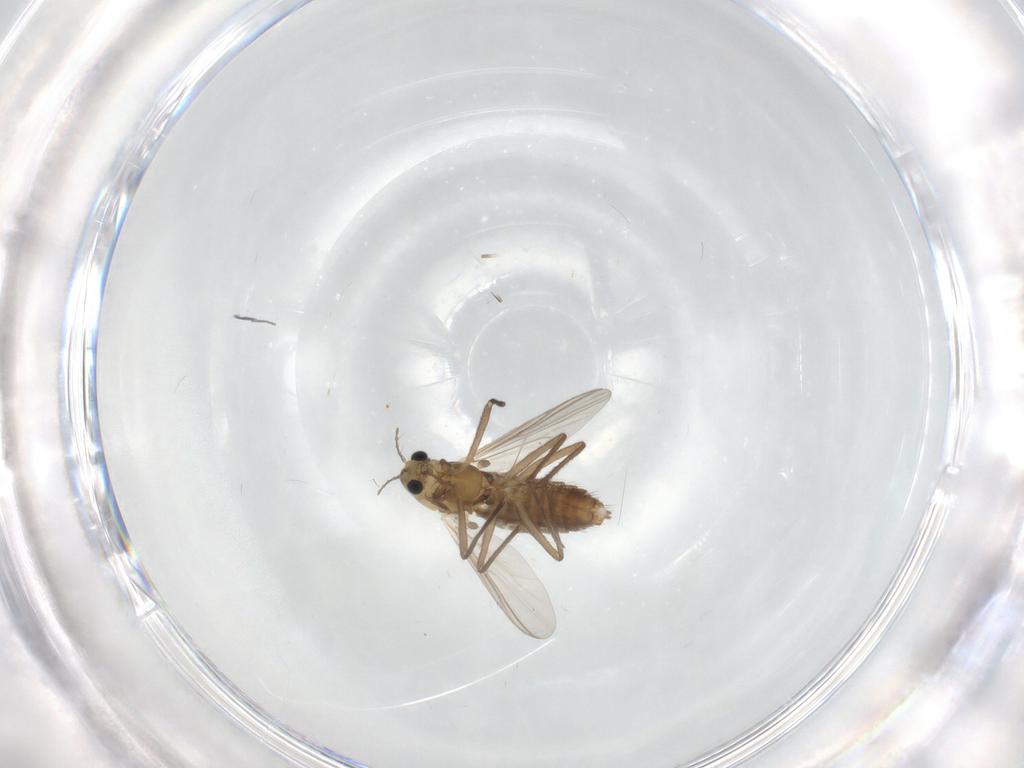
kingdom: Animalia
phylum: Arthropoda
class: Insecta
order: Diptera
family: Chironomidae
